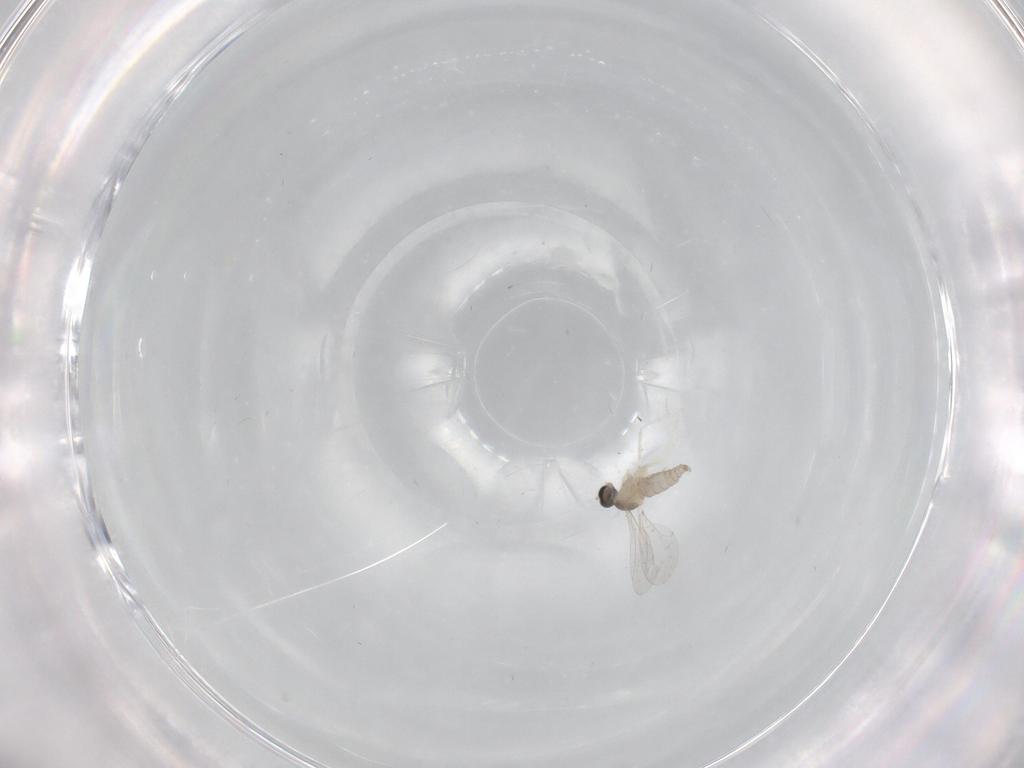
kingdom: Animalia
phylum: Arthropoda
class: Insecta
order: Diptera
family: Cecidomyiidae
